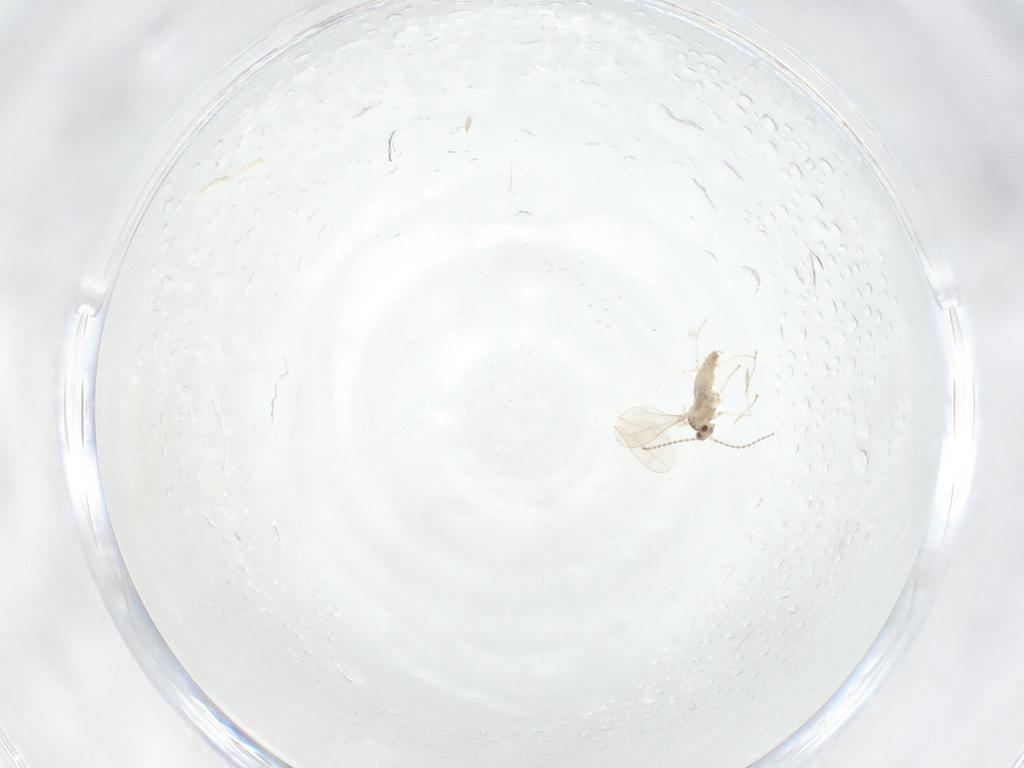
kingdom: Animalia
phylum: Arthropoda
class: Insecta
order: Diptera
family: Cecidomyiidae
